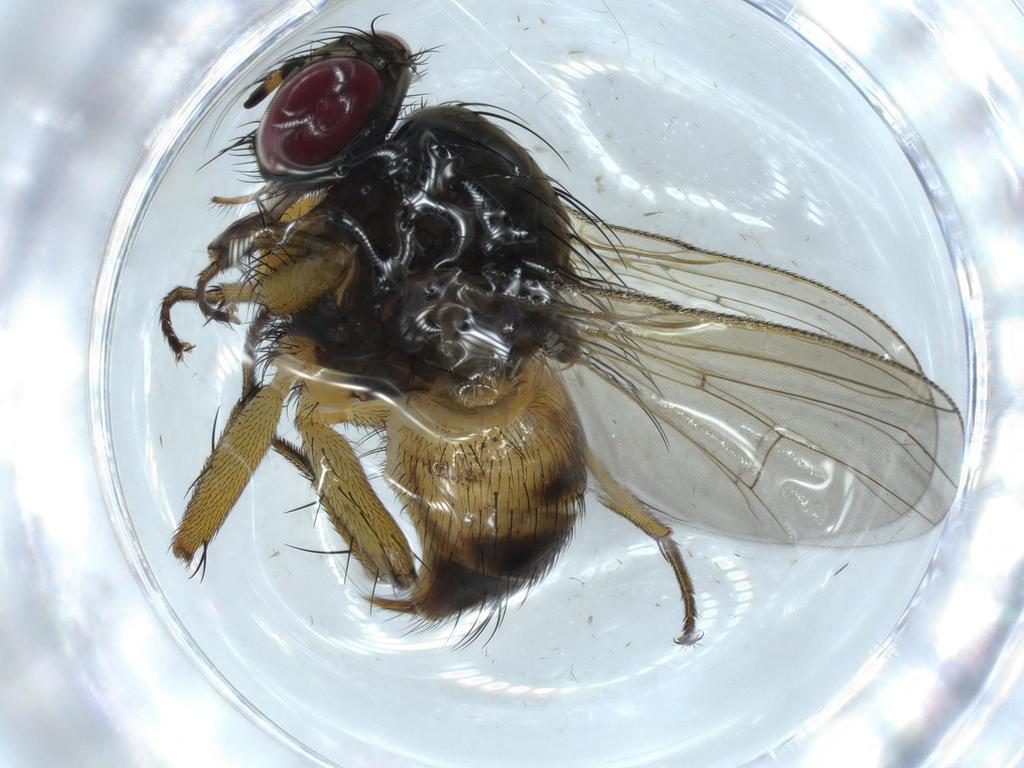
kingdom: Animalia
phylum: Arthropoda
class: Insecta
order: Diptera
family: Muscidae
